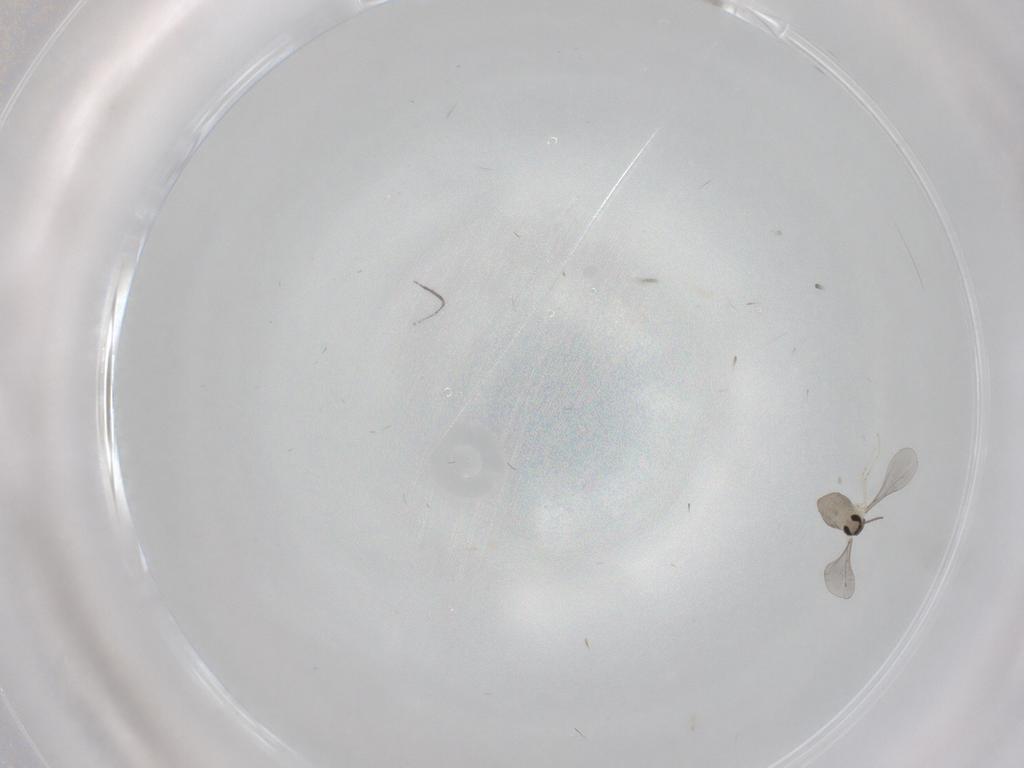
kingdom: Animalia
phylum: Arthropoda
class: Insecta
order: Diptera
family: Cecidomyiidae
